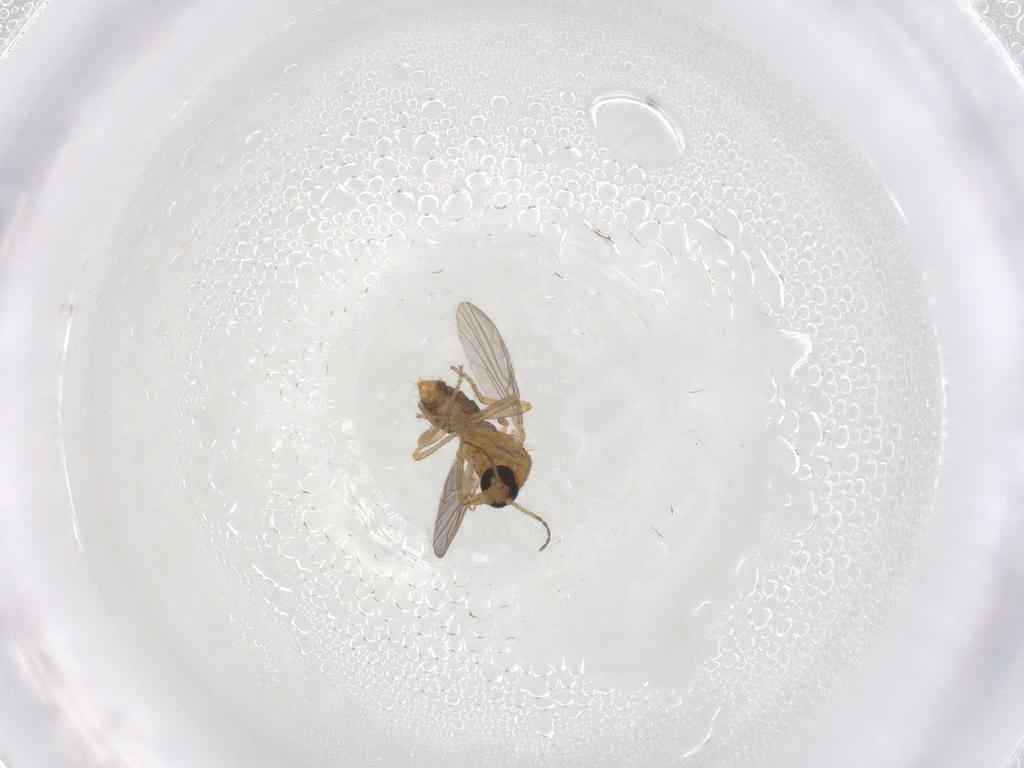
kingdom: Animalia
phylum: Arthropoda
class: Insecta
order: Diptera
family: Ceratopogonidae
